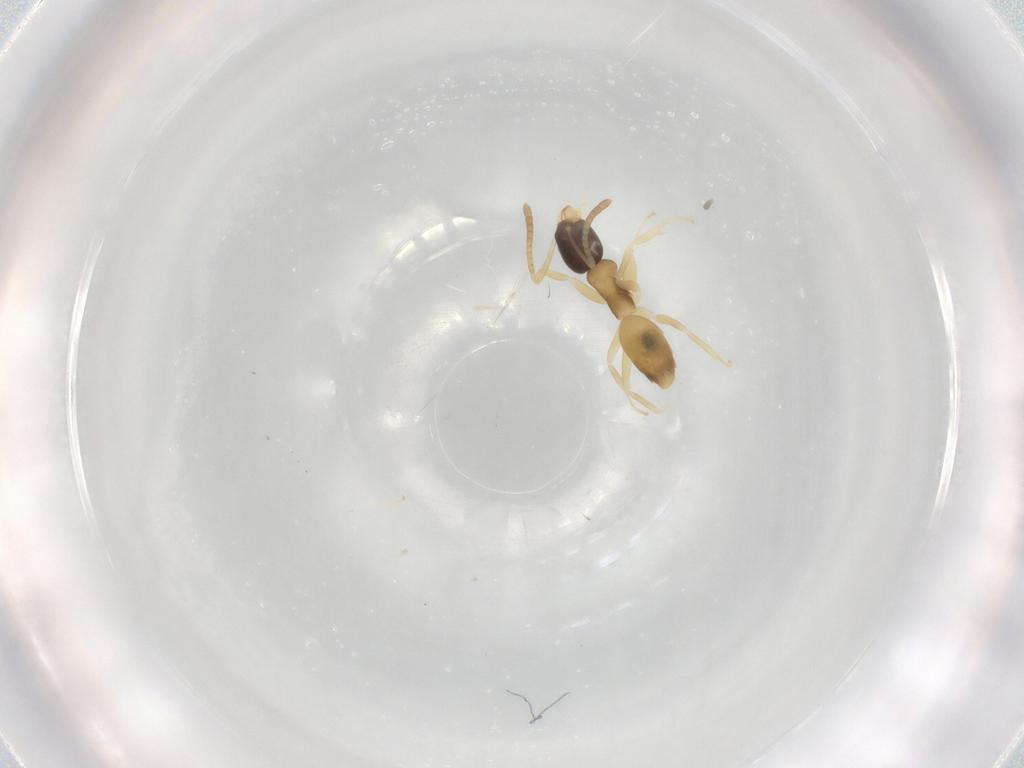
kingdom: Animalia
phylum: Arthropoda
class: Insecta
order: Hymenoptera
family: Formicidae
